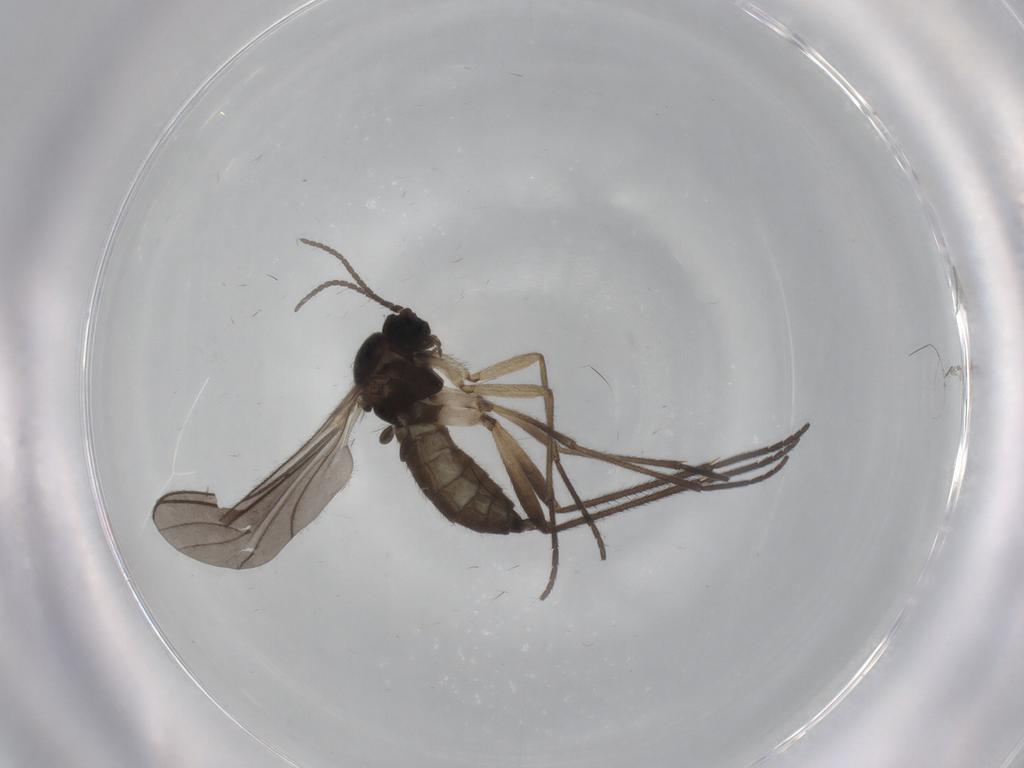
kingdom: Animalia
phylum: Arthropoda
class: Insecta
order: Diptera
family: Sciaridae
